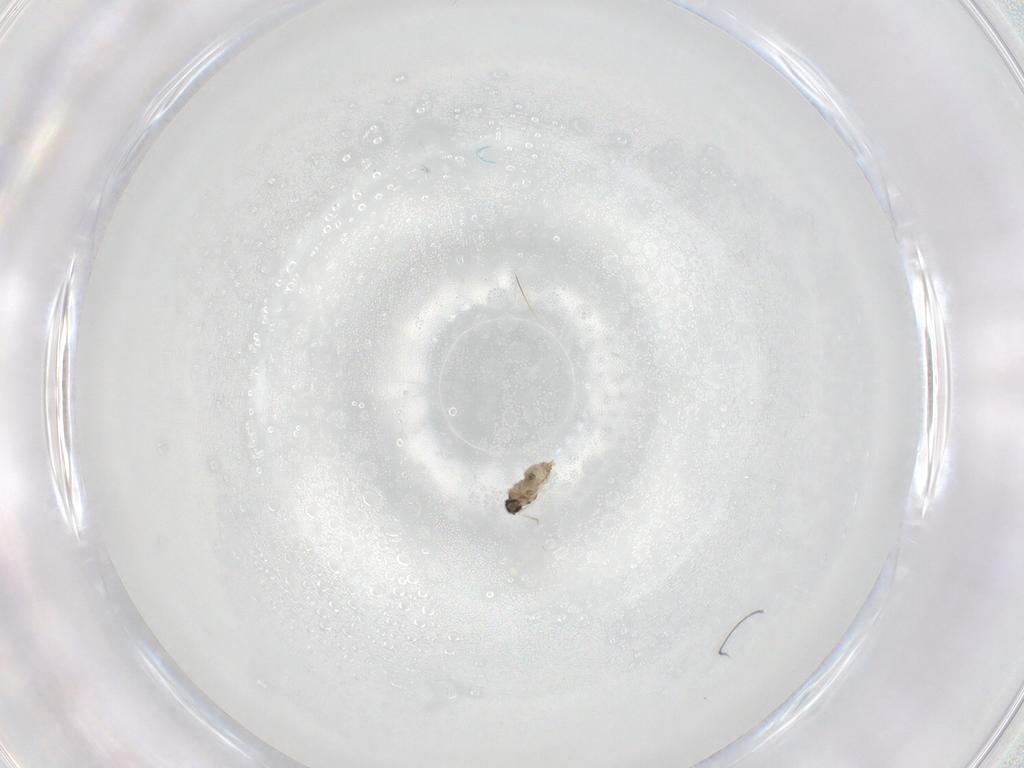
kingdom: Animalia
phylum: Arthropoda
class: Insecta
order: Diptera
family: Cecidomyiidae
